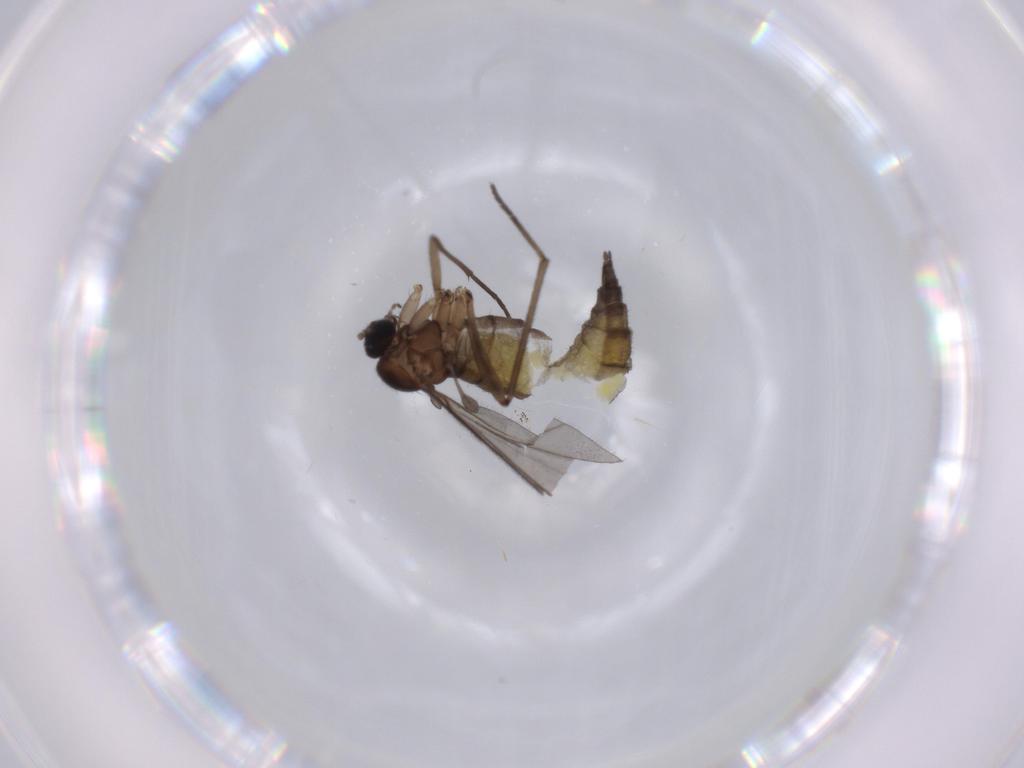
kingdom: Animalia
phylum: Arthropoda
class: Insecta
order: Diptera
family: Sciaridae
